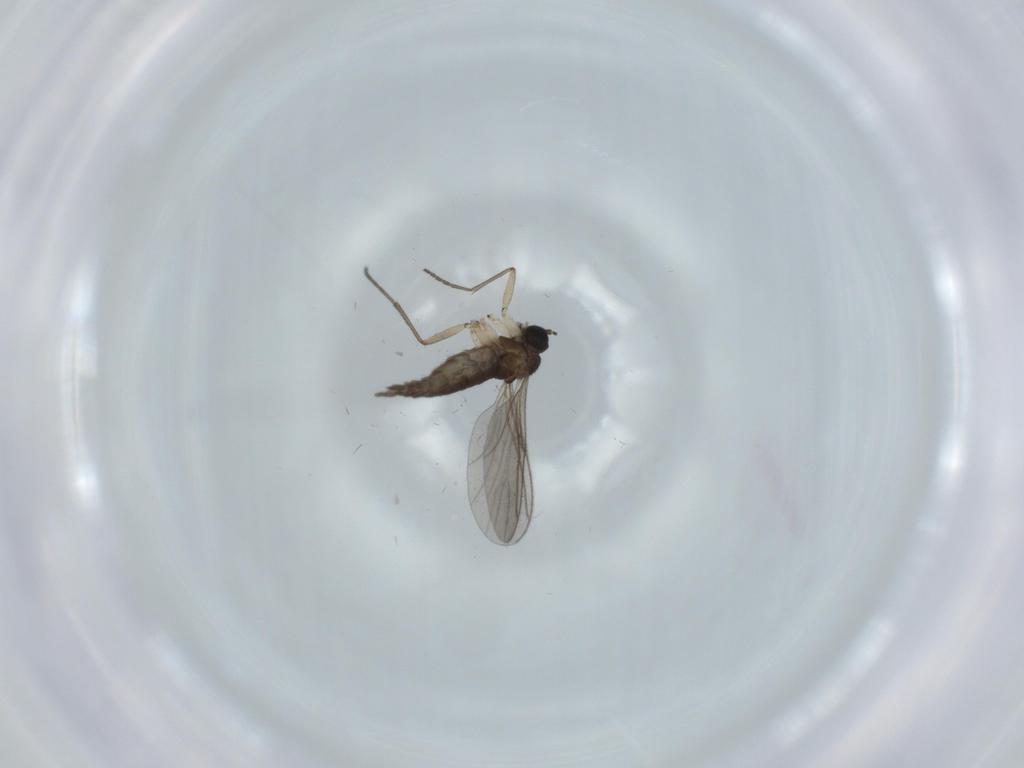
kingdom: Animalia
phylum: Arthropoda
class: Insecta
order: Diptera
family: Sciaridae
